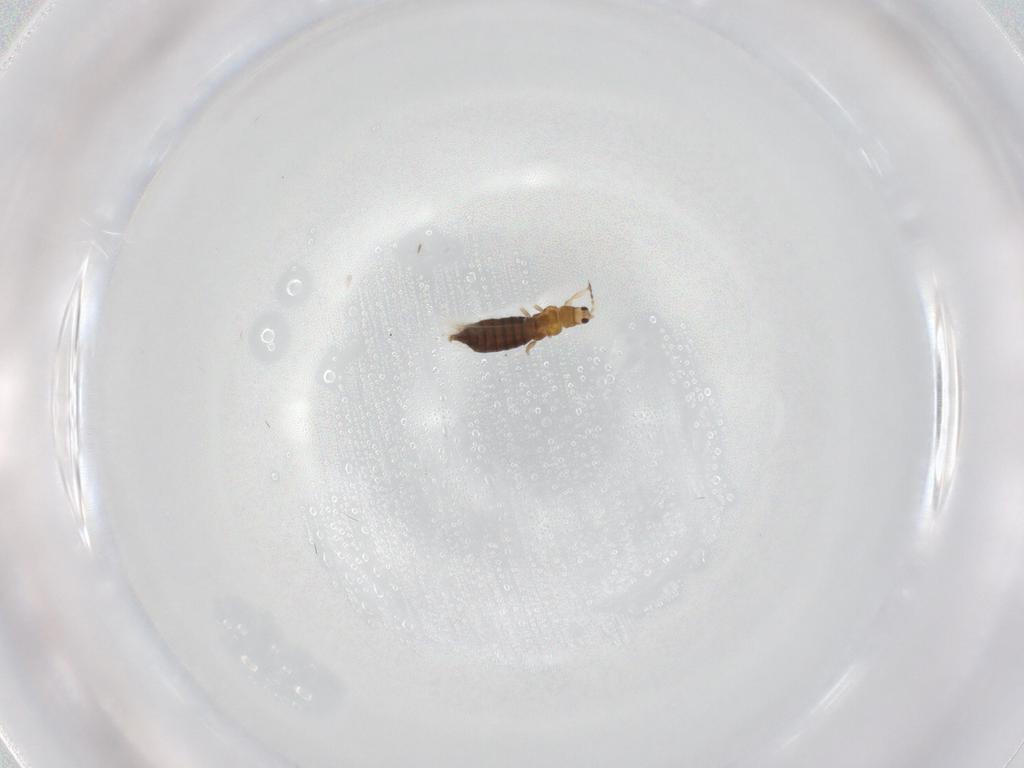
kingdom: Animalia
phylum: Arthropoda
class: Insecta
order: Thysanoptera
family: Thripidae
